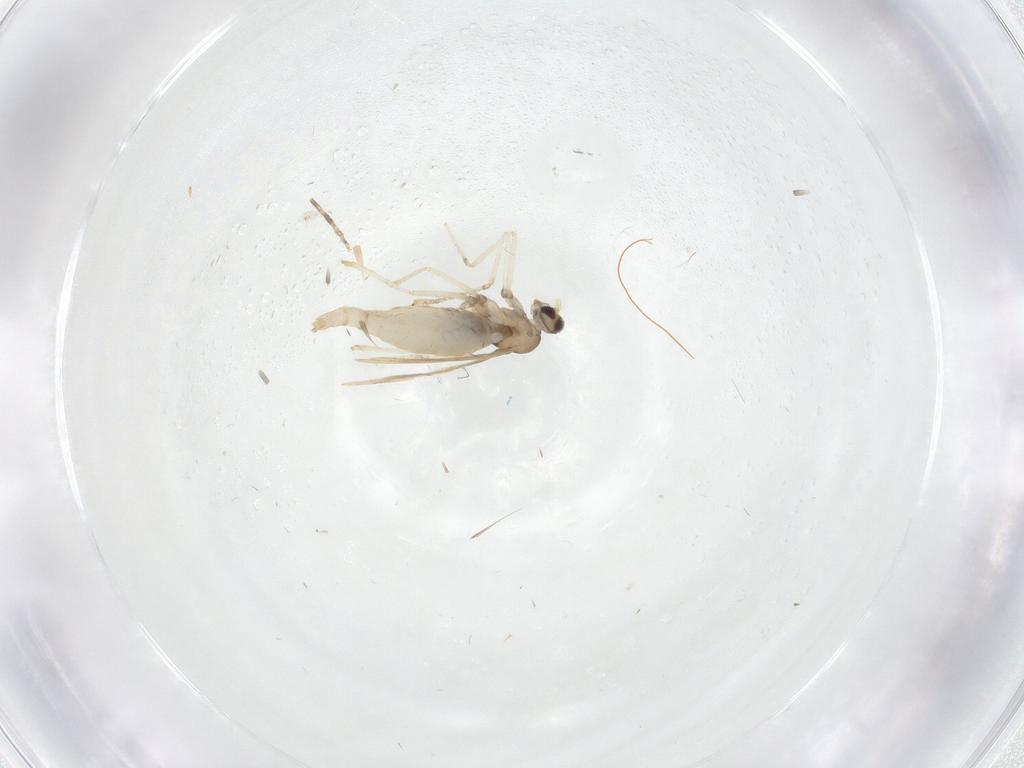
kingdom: Animalia
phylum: Arthropoda
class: Insecta
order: Diptera
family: Cecidomyiidae
